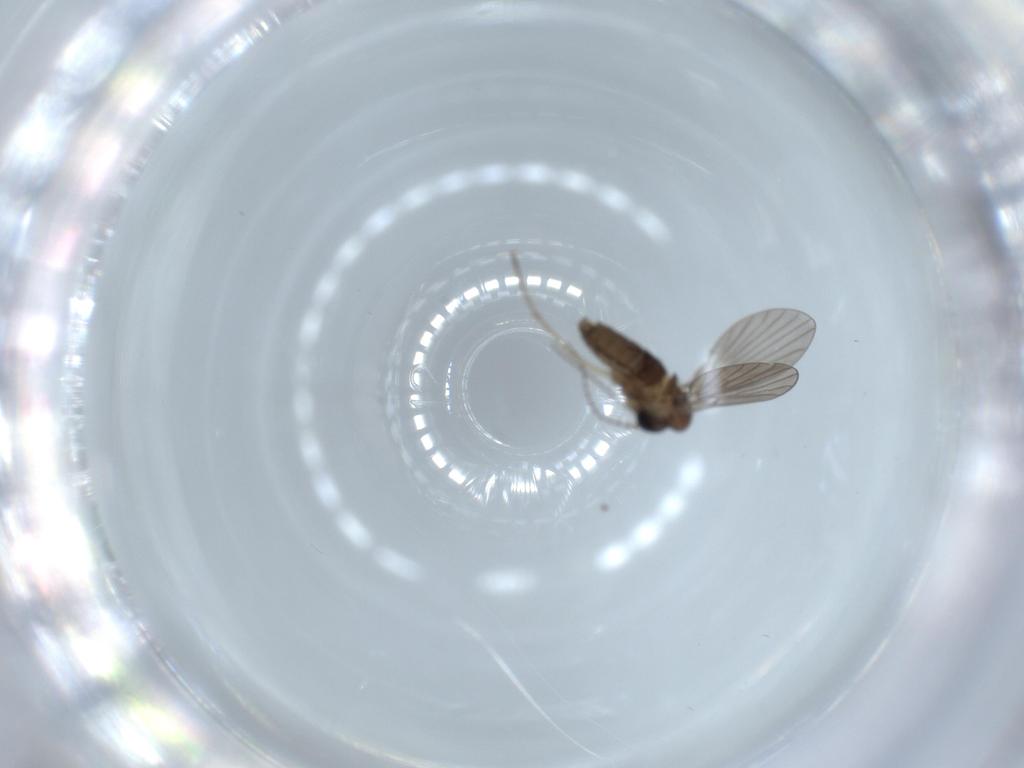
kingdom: Animalia
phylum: Arthropoda
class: Insecta
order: Diptera
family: Psychodidae
